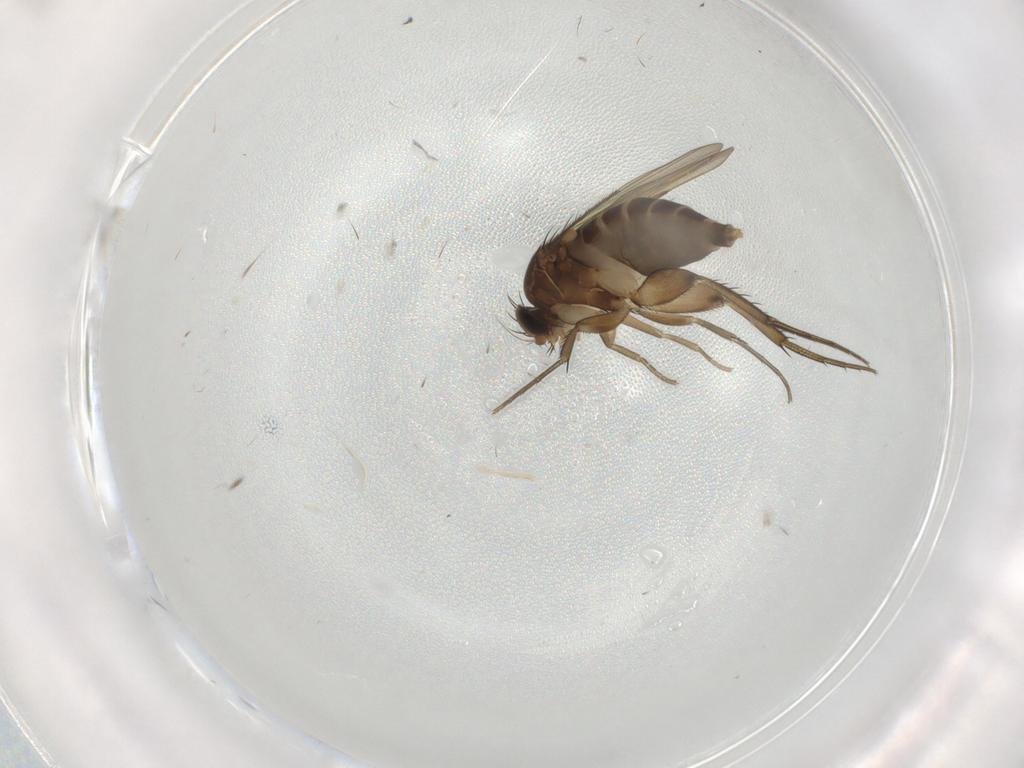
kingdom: Animalia
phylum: Arthropoda
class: Insecta
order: Diptera
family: Phoridae
